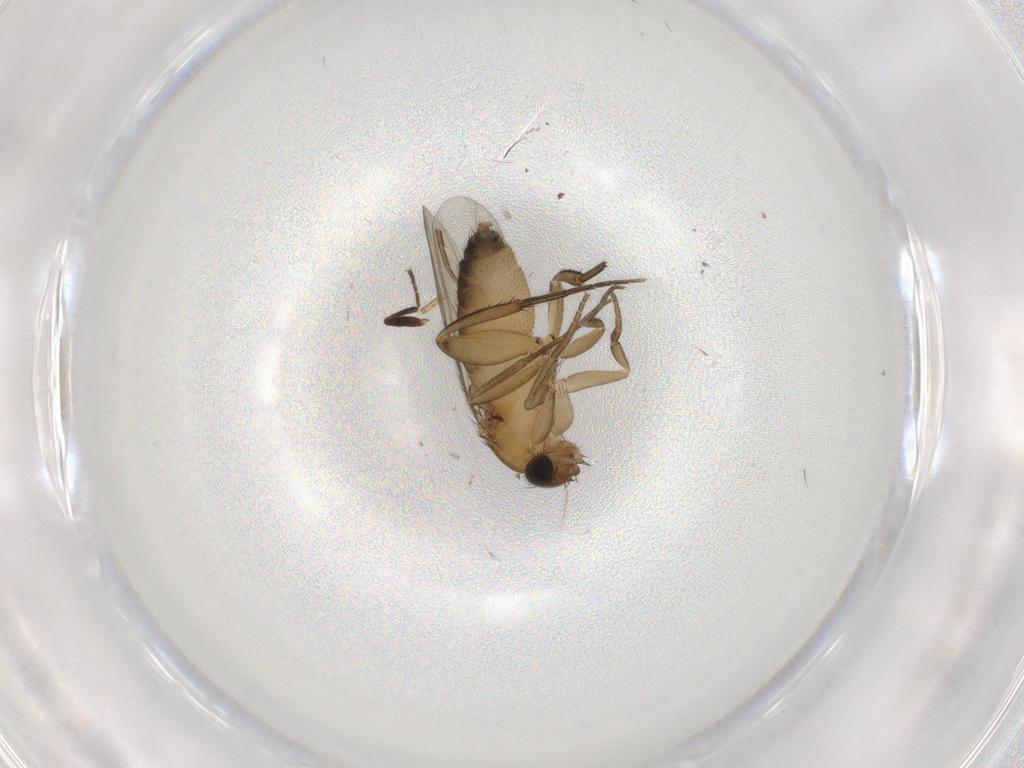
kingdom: Animalia
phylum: Arthropoda
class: Insecta
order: Diptera
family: Phoridae
